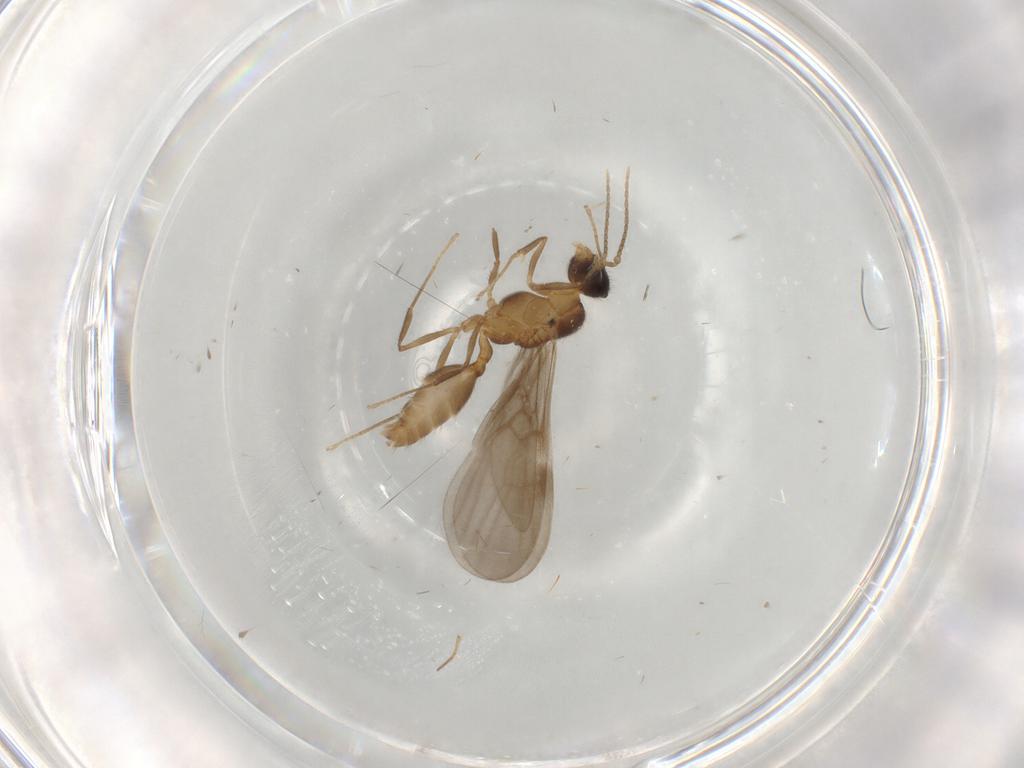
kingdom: Animalia
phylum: Arthropoda
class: Insecta
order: Hymenoptera
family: Formicidae
